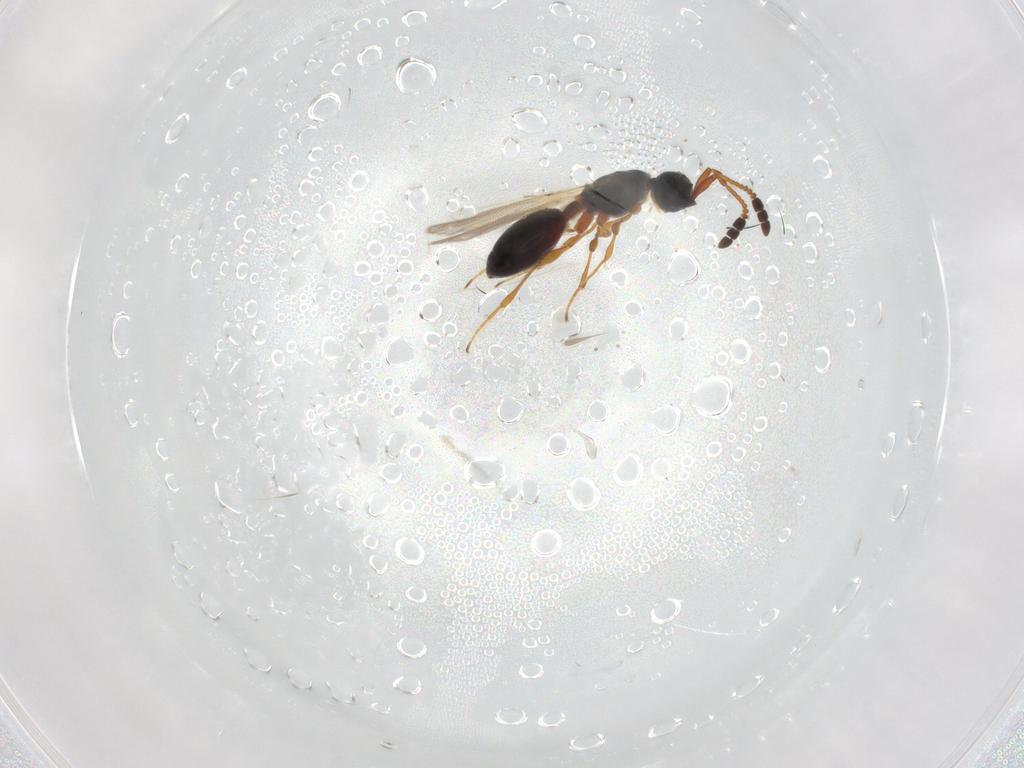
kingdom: Animalia
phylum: Arthropoda
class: Insecta
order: Hymenoptera
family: Diapriidae
